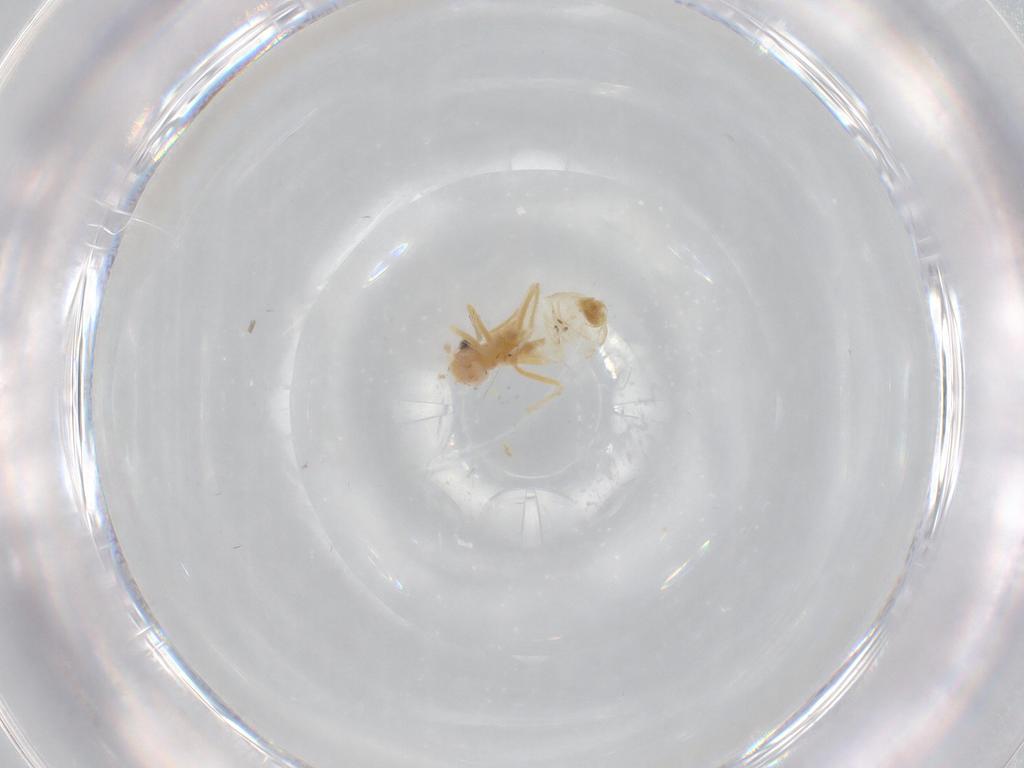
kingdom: Animalia
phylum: Arthropoda
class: Insecta
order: Psocodea
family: Caeciliusidae
